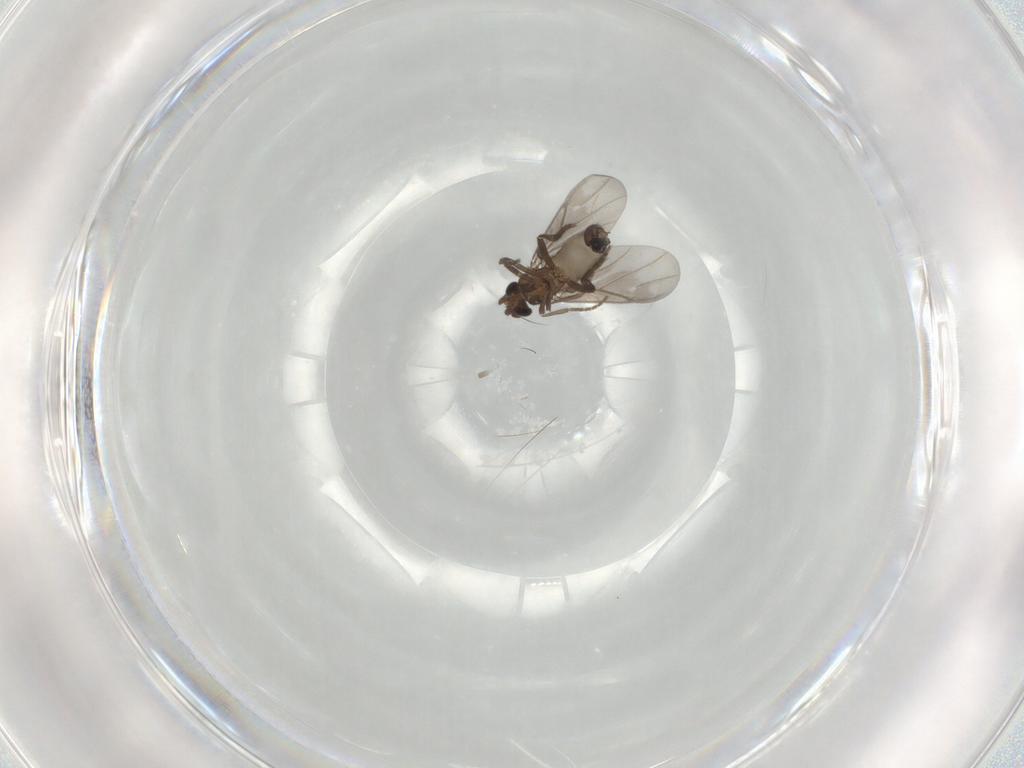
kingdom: Animalia
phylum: Arthropoda
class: Insecta
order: Diptera
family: Phoridae
